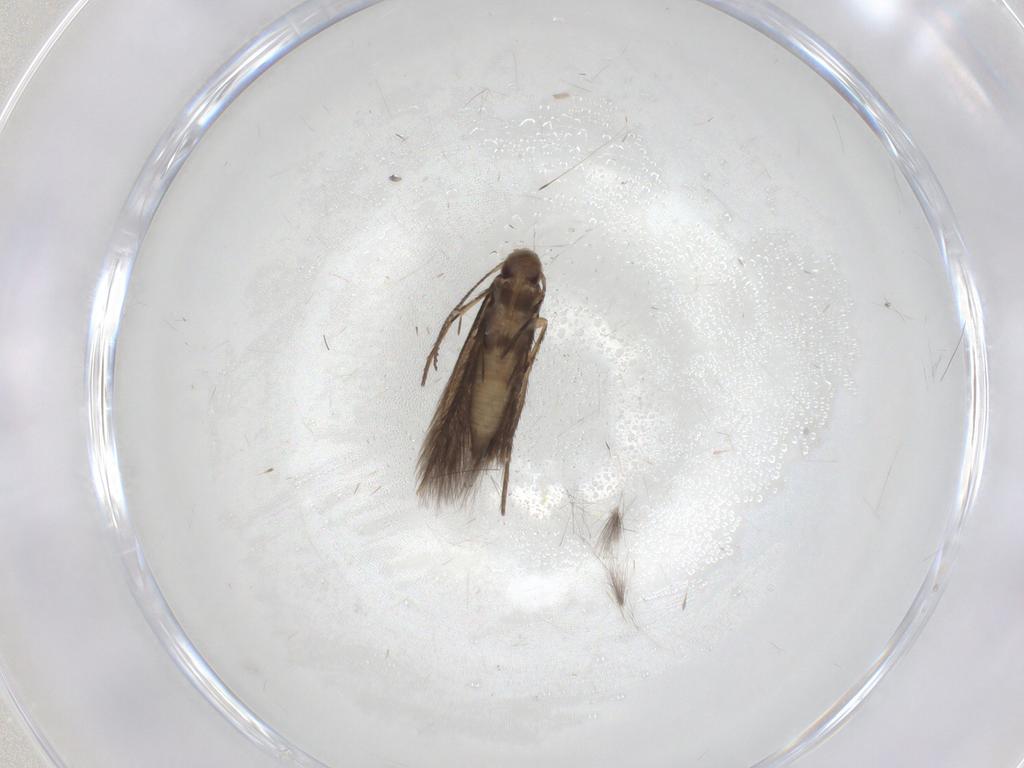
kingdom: Animalia
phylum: Arthropoda
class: Insecta
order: Lepidoptera
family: Pyralidae
